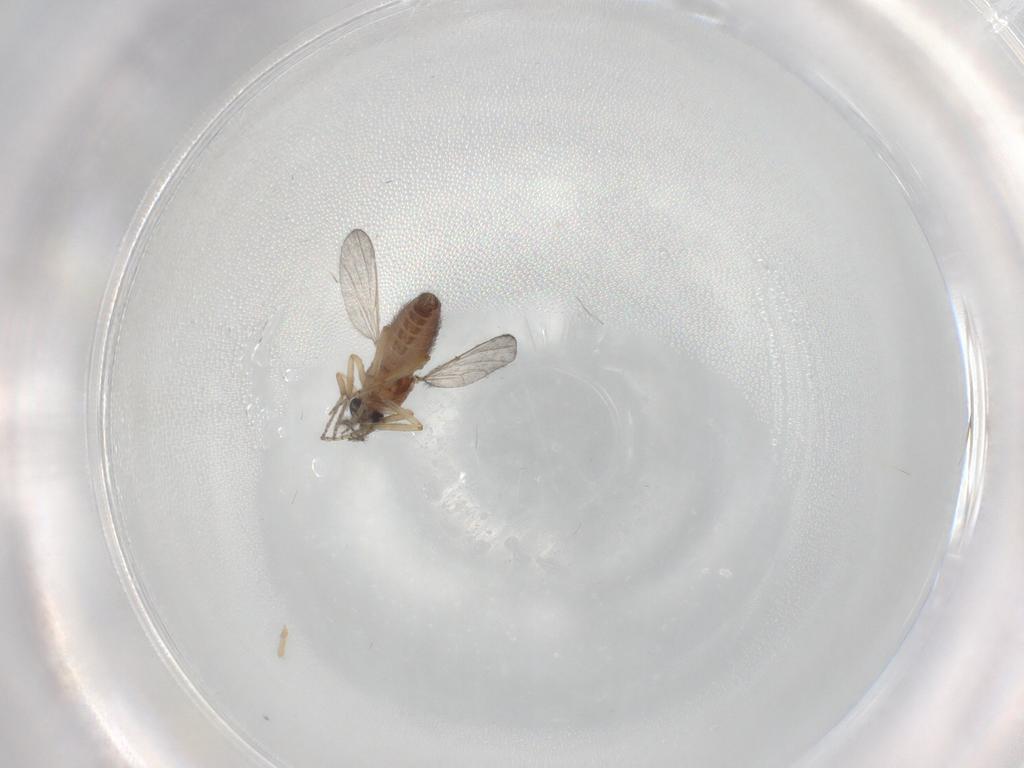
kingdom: Animalia
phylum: Arthropoda
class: Insecta
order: Diptera
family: Ceratopogonidae
